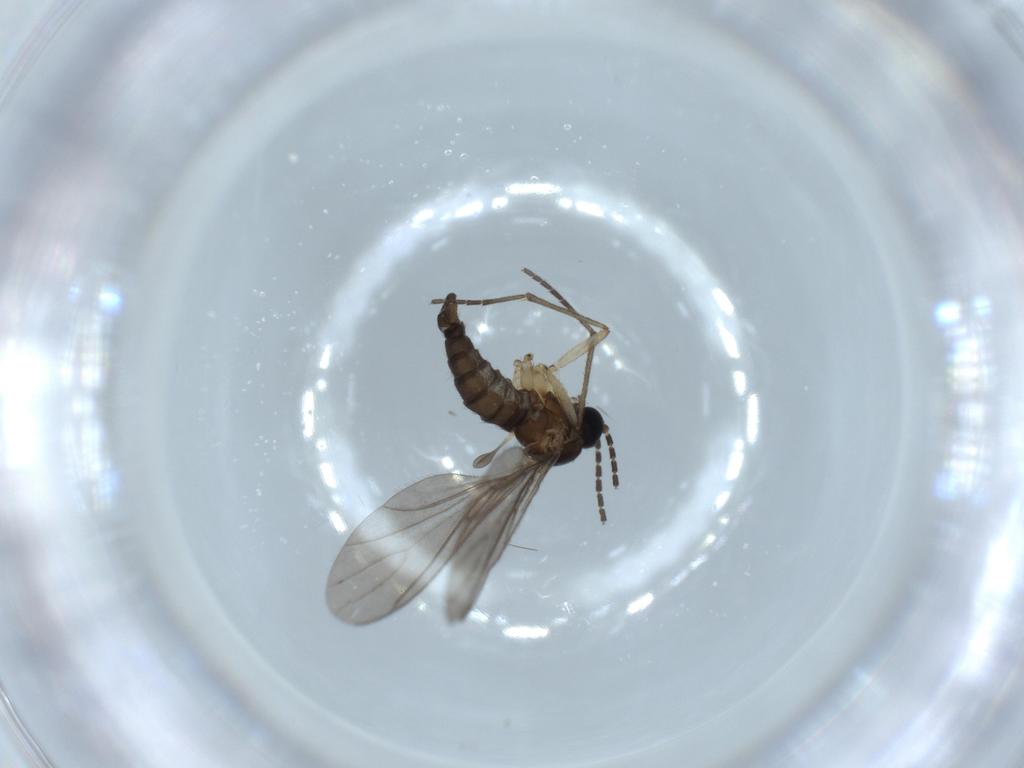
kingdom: Animalia
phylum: Arthropoda
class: Insecta
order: Diptera
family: Sciaridae
